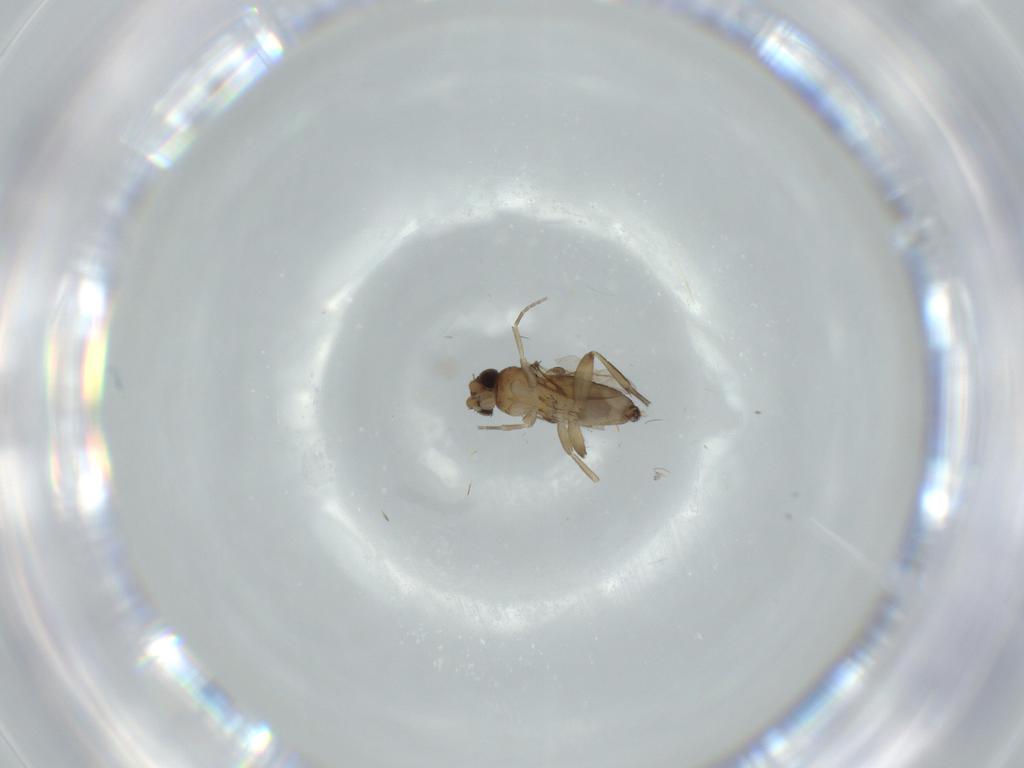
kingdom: Animalia
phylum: Arthropoda
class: Insecta
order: Diptera
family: Phoridae
